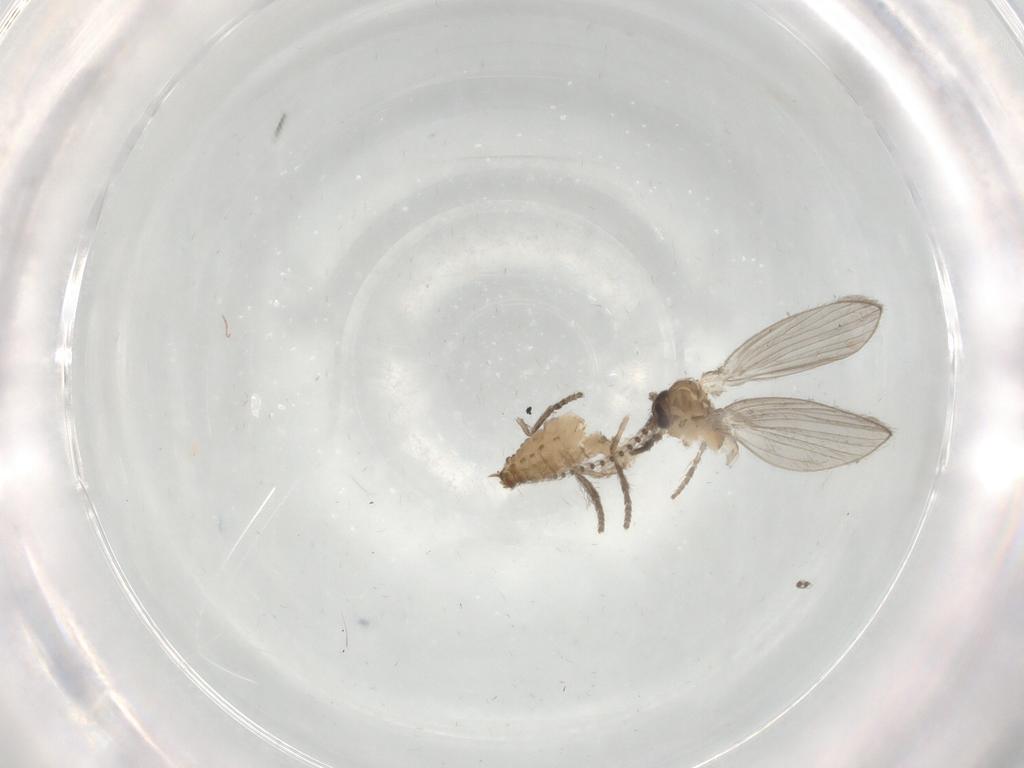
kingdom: Animalia
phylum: Arthropoda
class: Insecta
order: Diptera
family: Psychodidae
